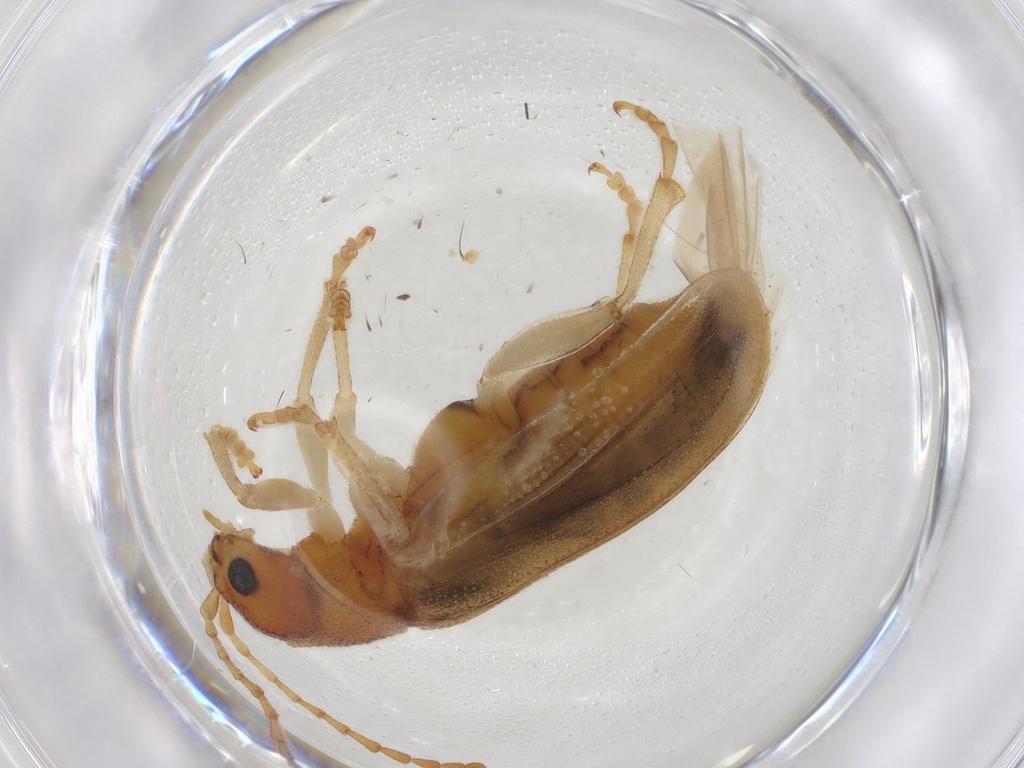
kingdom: Animalia
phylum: Arthropoda
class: Insecta
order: Coleoptera
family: Chrysomelidae
